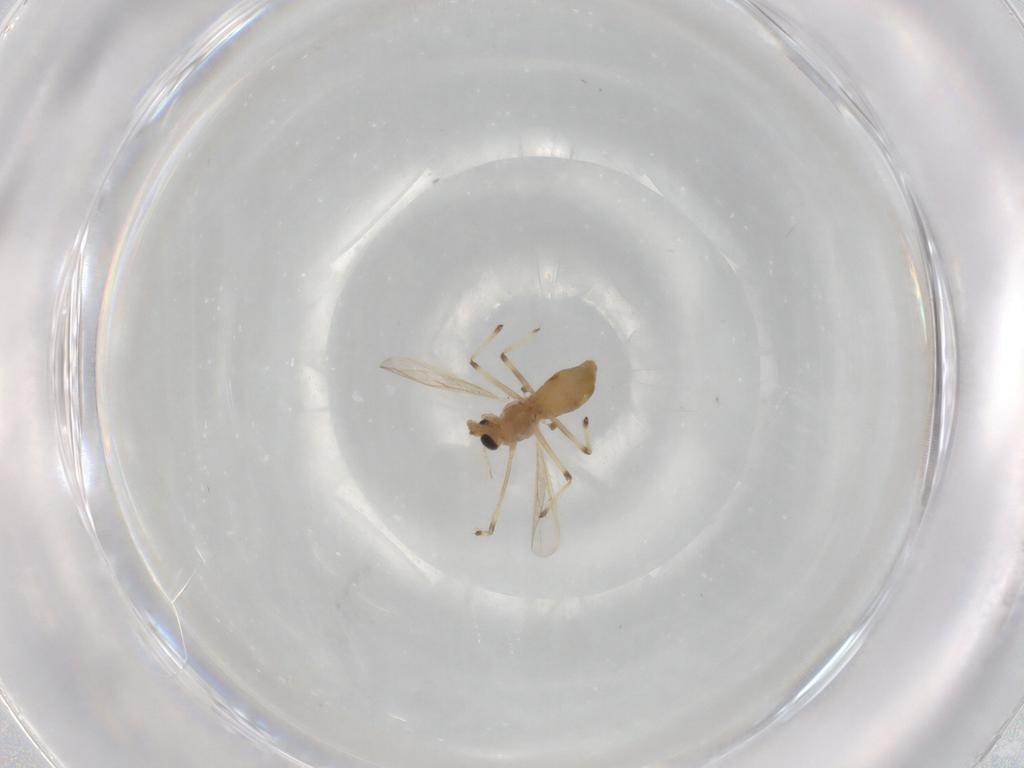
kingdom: Animalia
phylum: Arthropoda
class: Insecta
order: Diptera
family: Chironomidae
